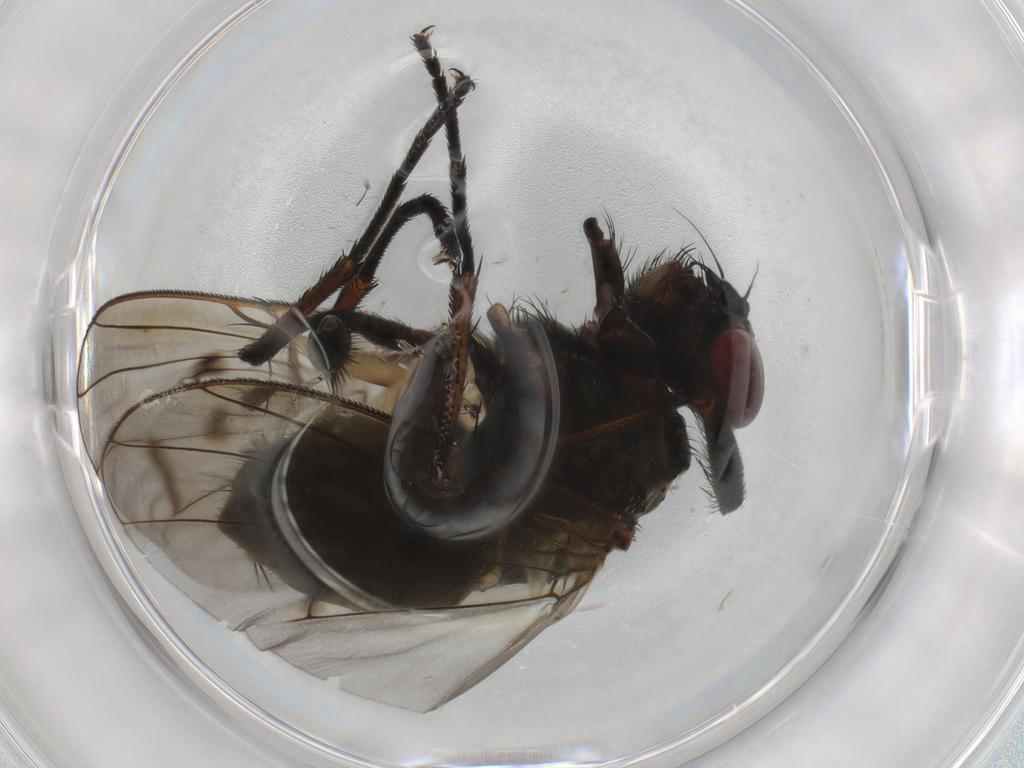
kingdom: Animalia
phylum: Arthropoda
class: Insecta
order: Diptera
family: Muscidae
